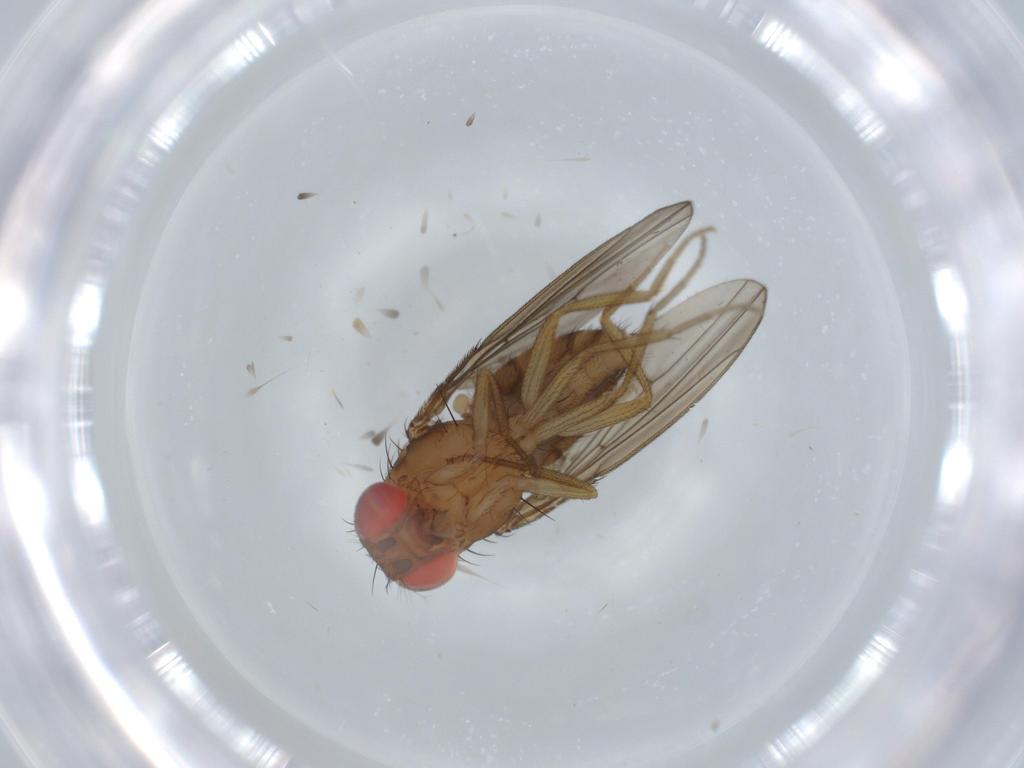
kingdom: Animalia
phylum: Arthropoda
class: Insecta
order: Diptera
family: Drosophilidae
